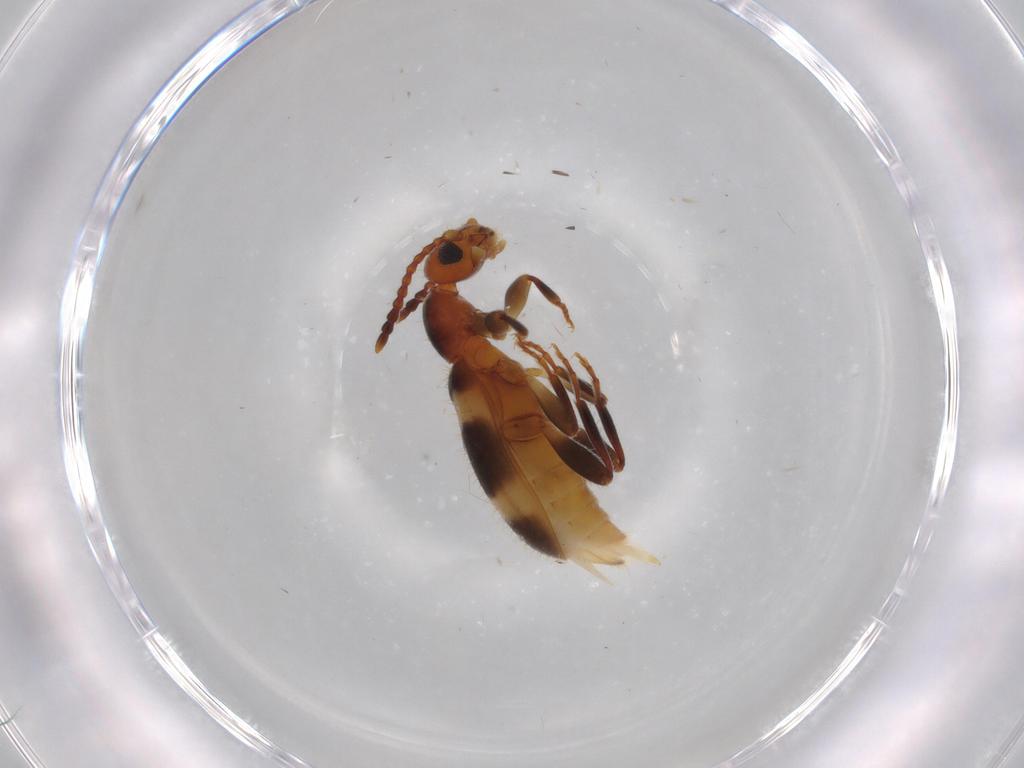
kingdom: Animalia
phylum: Arthropoda
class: Insecta
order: Coleoptera
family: Anthicidae
